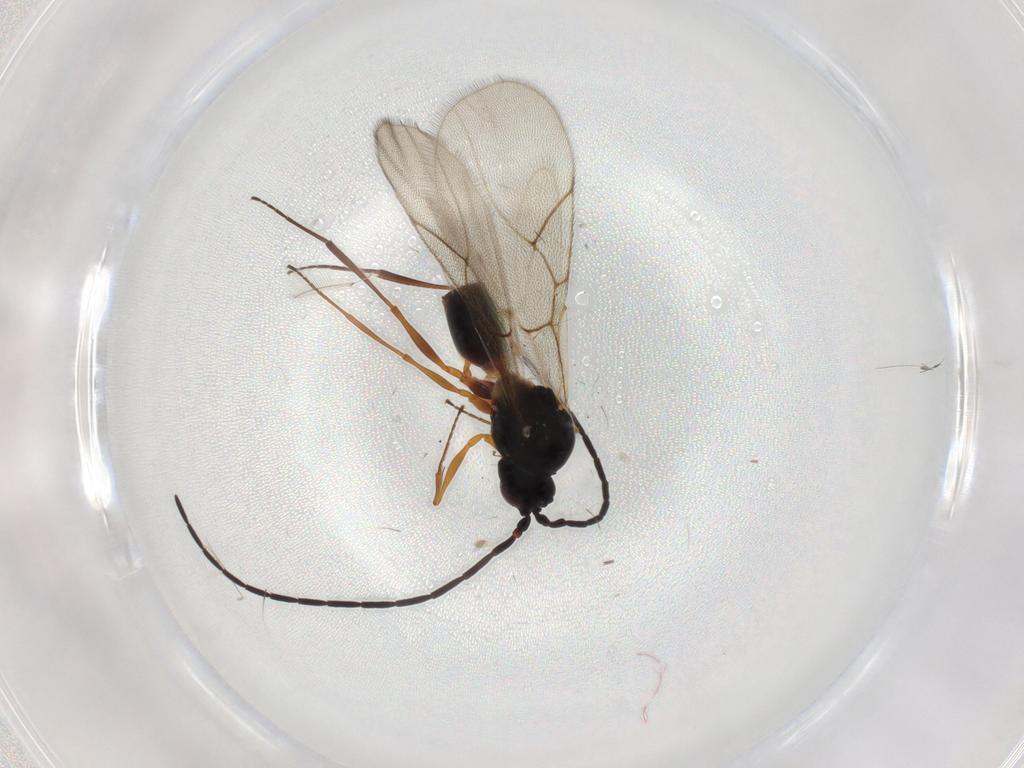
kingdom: Animalia
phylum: Arthropoda
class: Insecta
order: Hymenoptera
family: Figitidae
